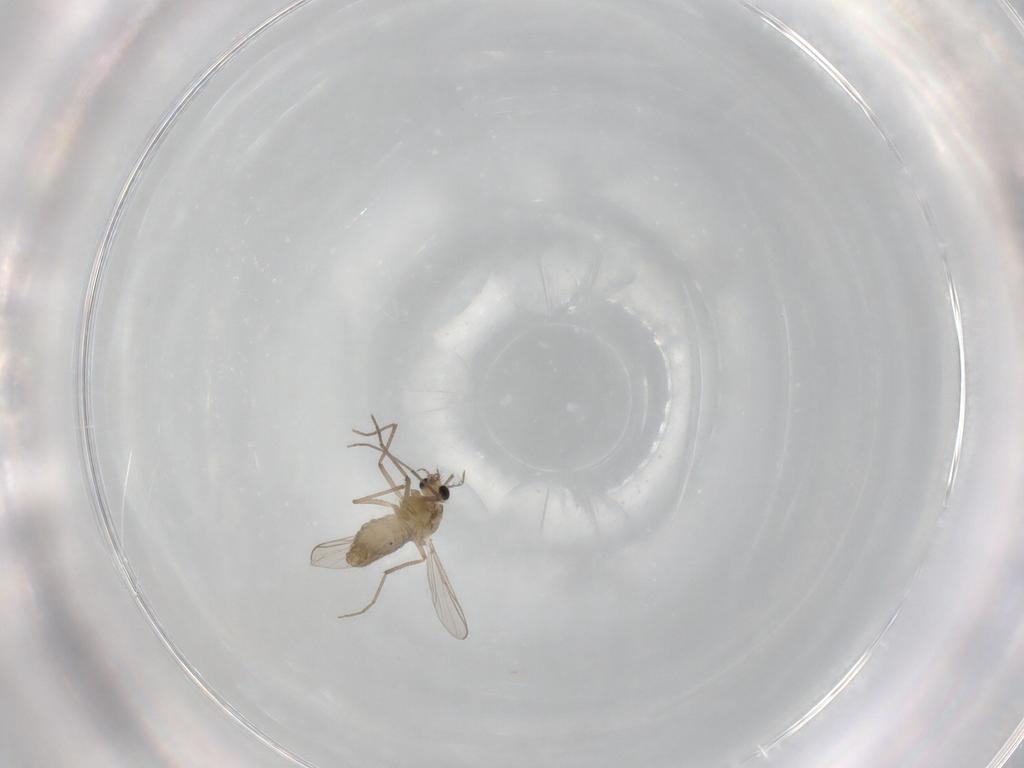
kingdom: Animalia
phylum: Arthropoda
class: Insecta
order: Diptera
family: Chironomidae
